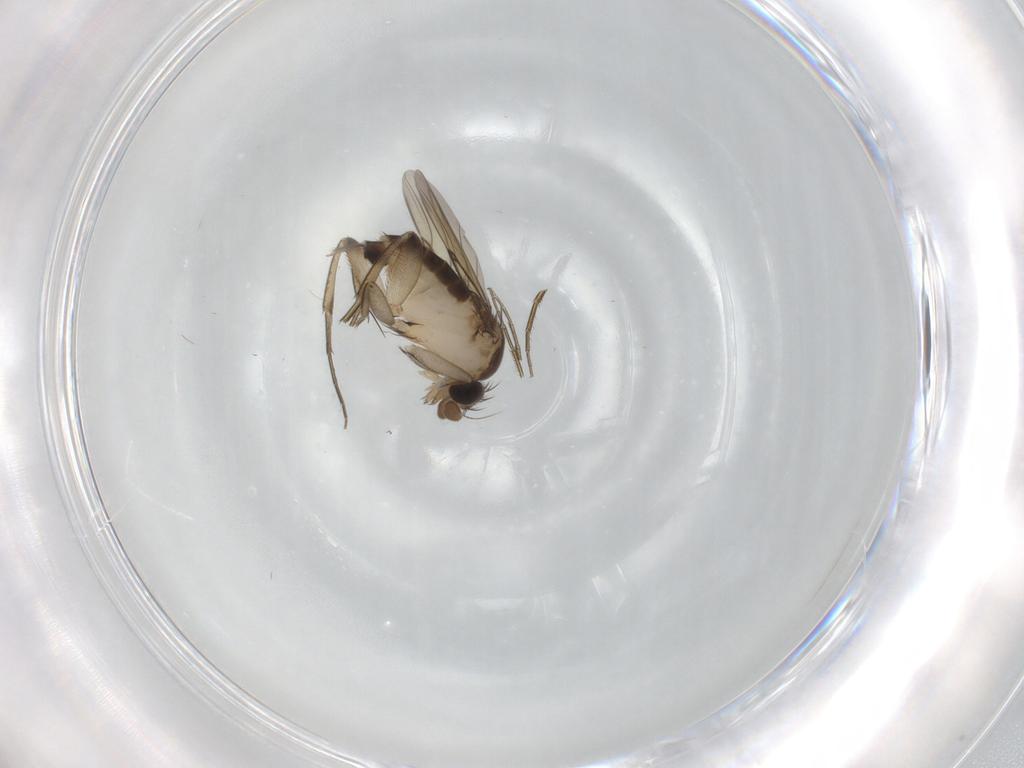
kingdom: Animalia
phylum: Arthropoda
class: Insecta
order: Diptera
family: Phoridae
